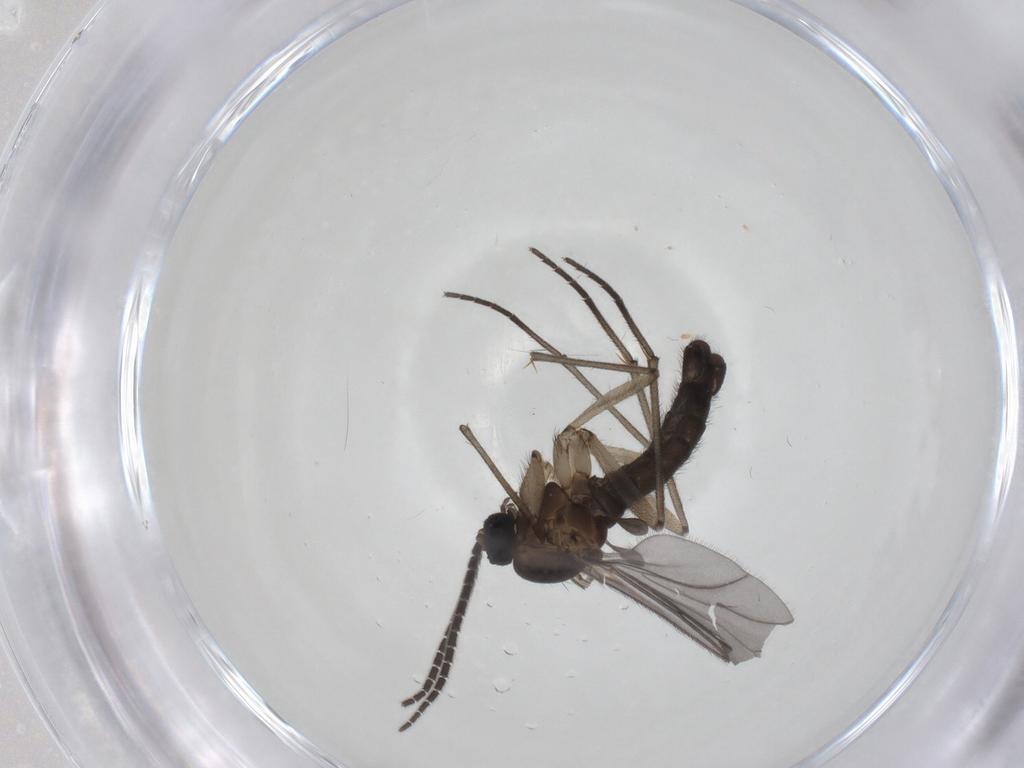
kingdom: Animalia
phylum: Arthropoda
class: Insecta
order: Diptera
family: Sciaridae
